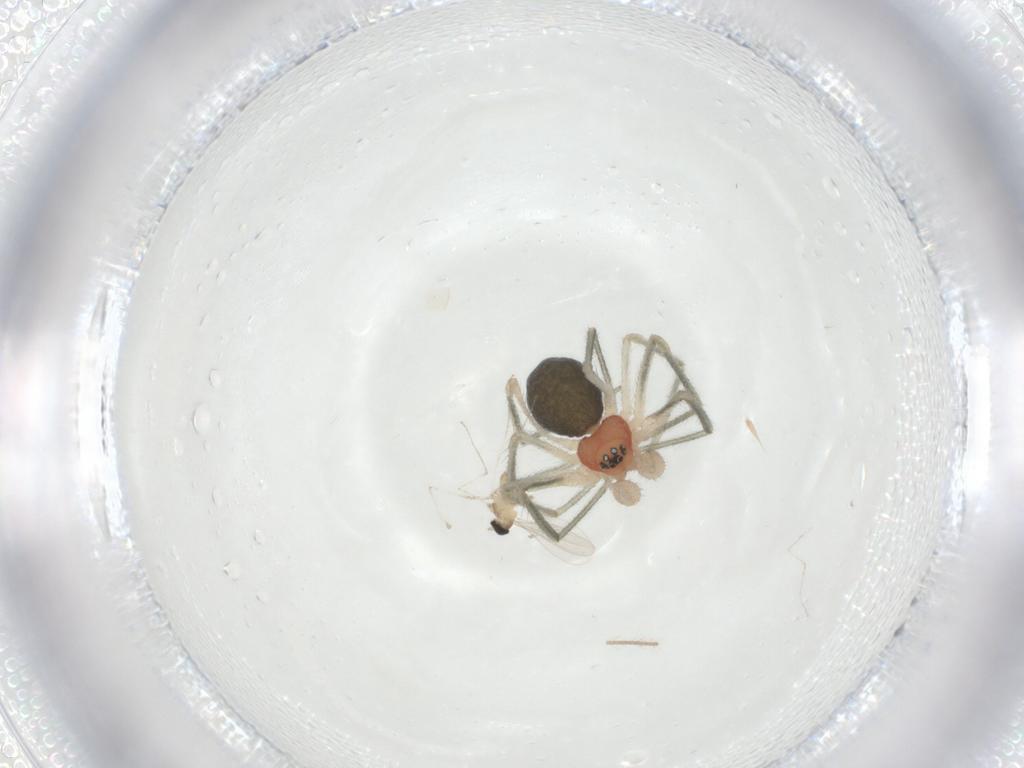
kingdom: Animalia
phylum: Arthropoda
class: Arachnida
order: Araneae
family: Linyphiidae
